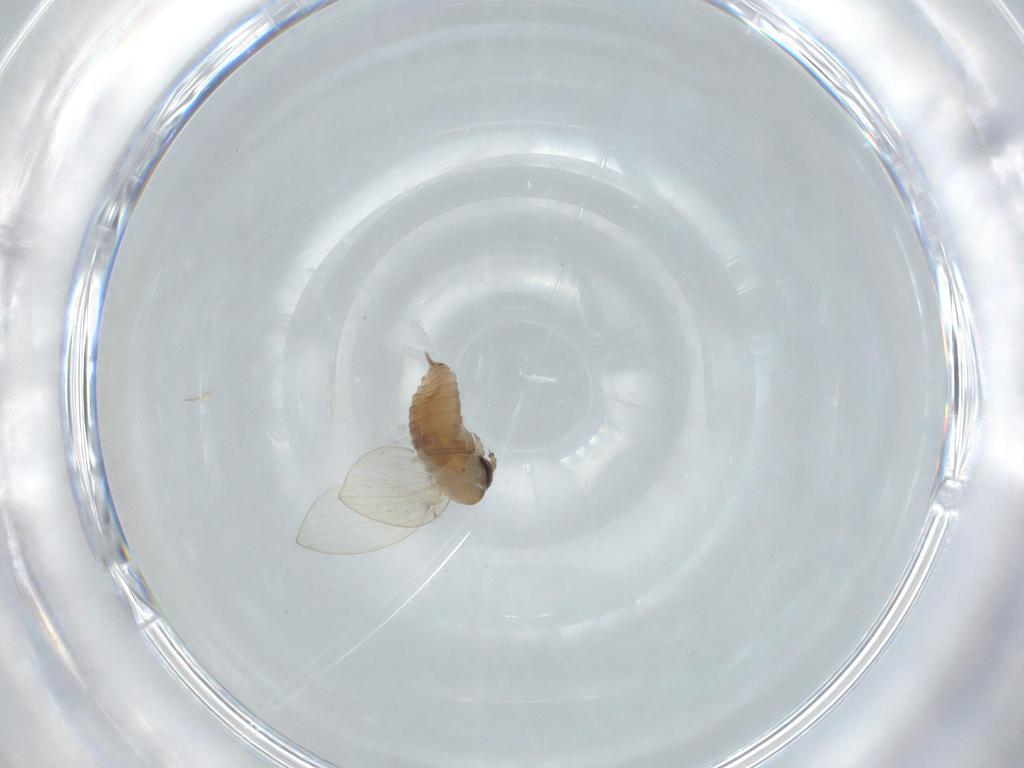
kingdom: Animalia
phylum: Arthropoda
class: Insecta
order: Diptera
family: Psychodidae
